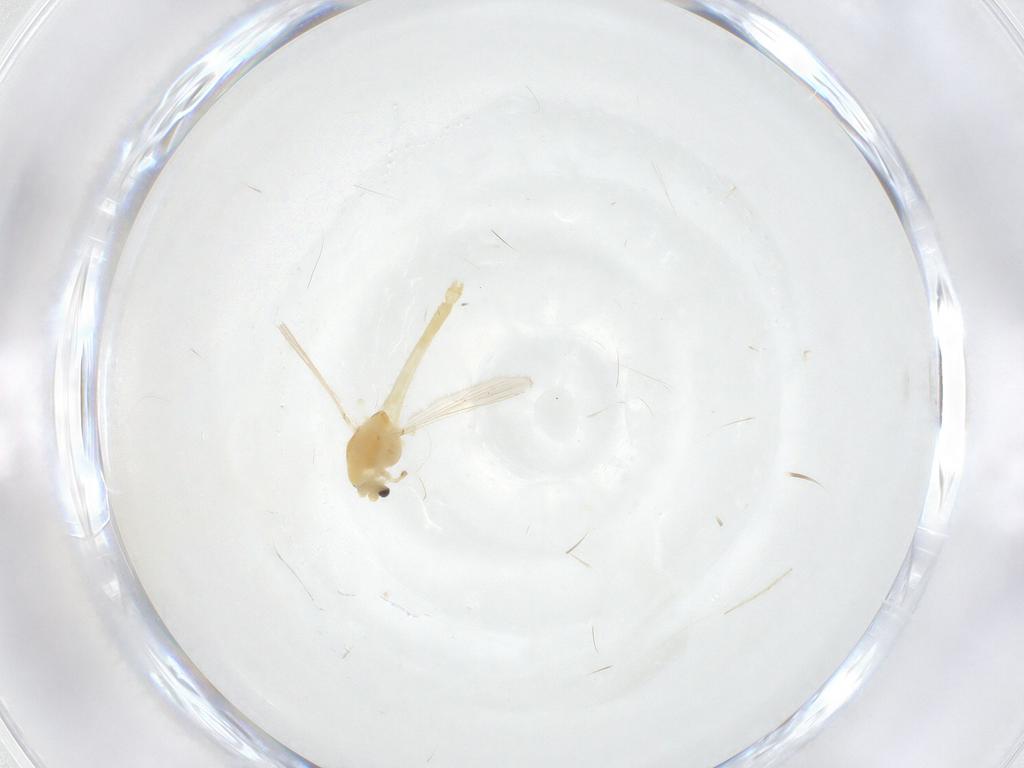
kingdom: Animalia
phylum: Arthropoda
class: Insecta
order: Diptera
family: Chironomidae
